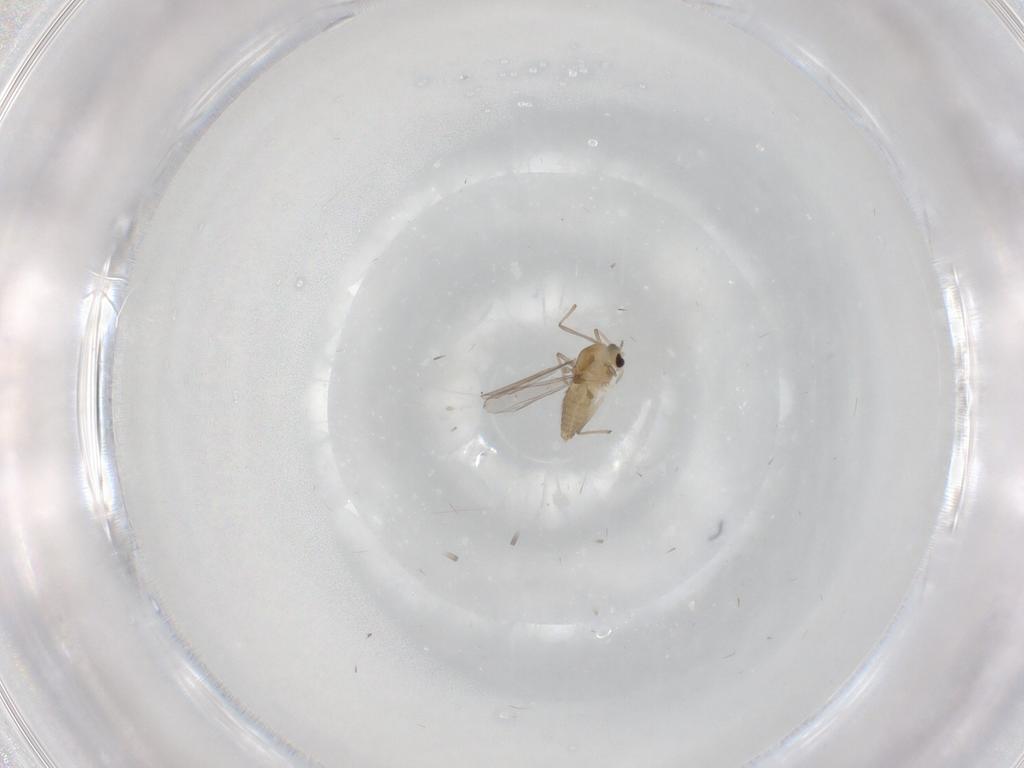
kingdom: Animalia
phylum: Arthropoda
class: Insecta
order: Diptera
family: Chironomidae
